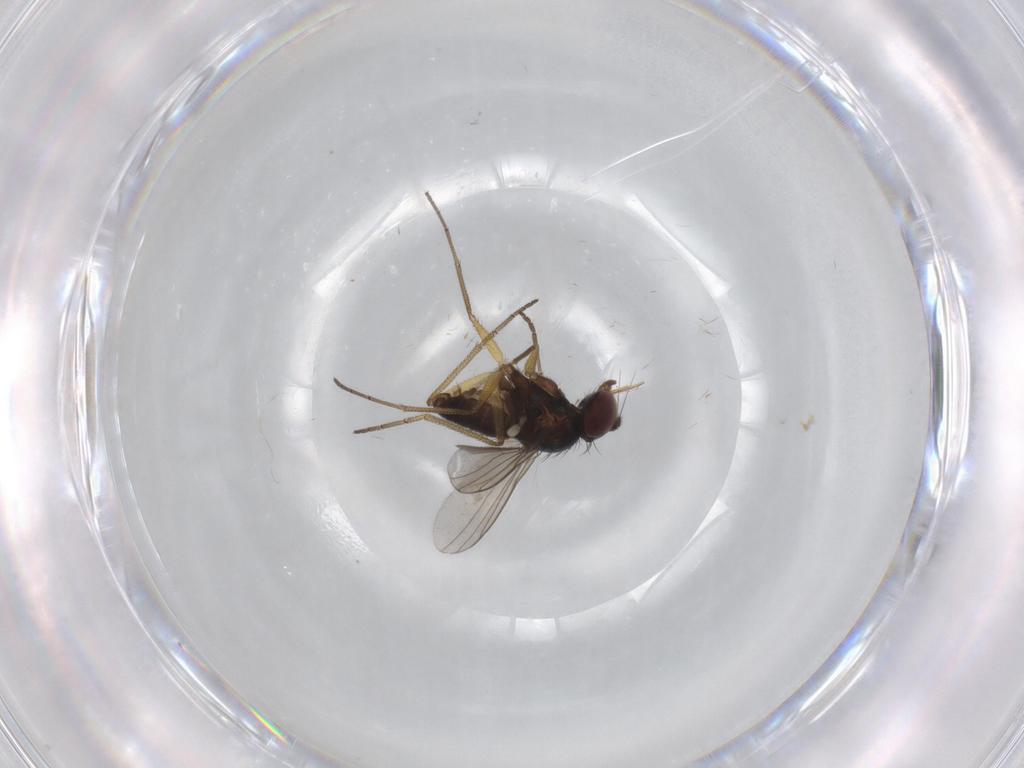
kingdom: Animalia
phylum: Arthropoda
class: Insecta
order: Diptera
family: Dolichopodidae
